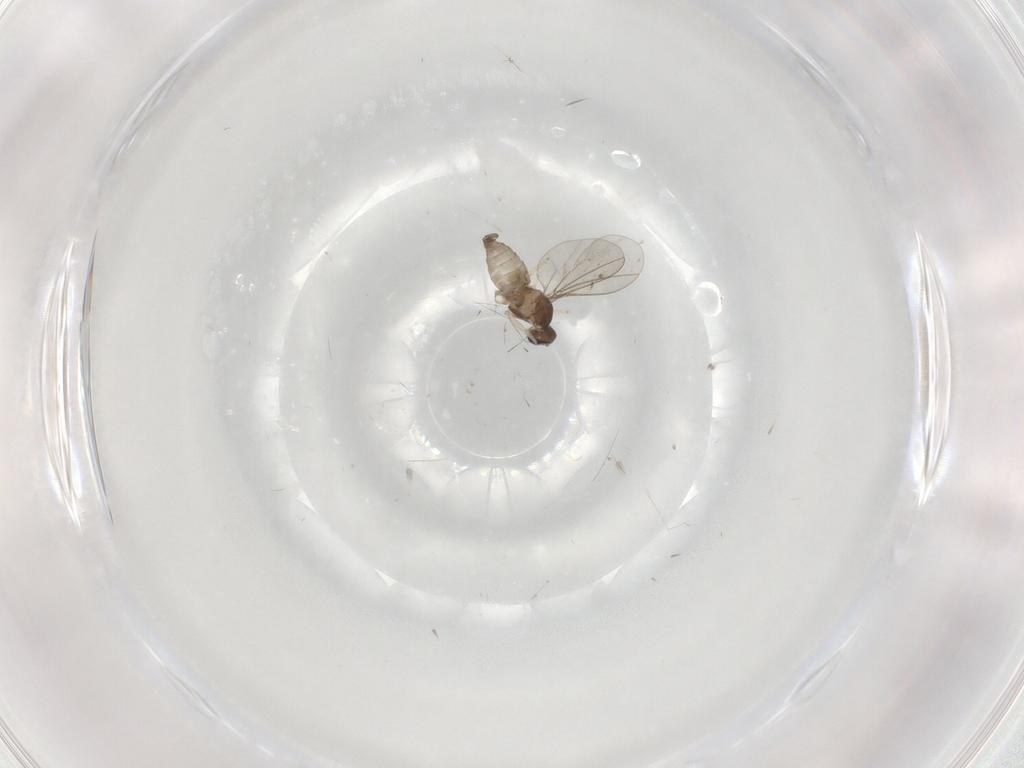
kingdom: Animalia
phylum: Arthropoda
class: Insecta
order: Diptera
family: Cecidomyiidae
